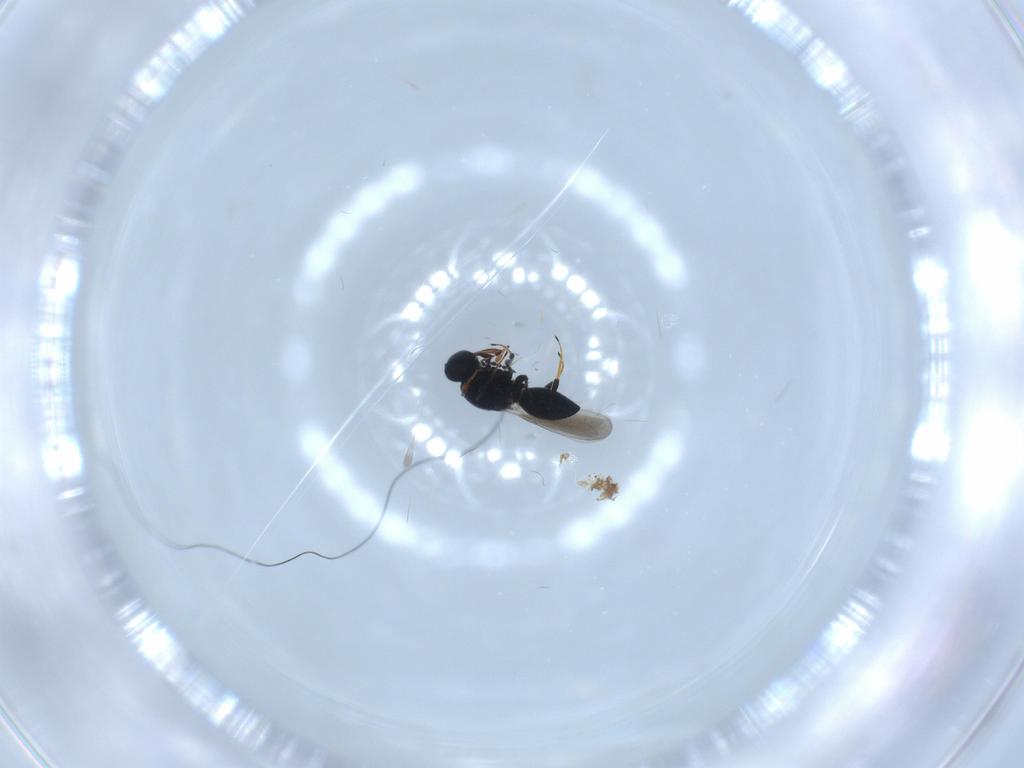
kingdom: Animalia
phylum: Arthropoda
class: Insecta
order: Hymenoptera
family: Platygastridae
